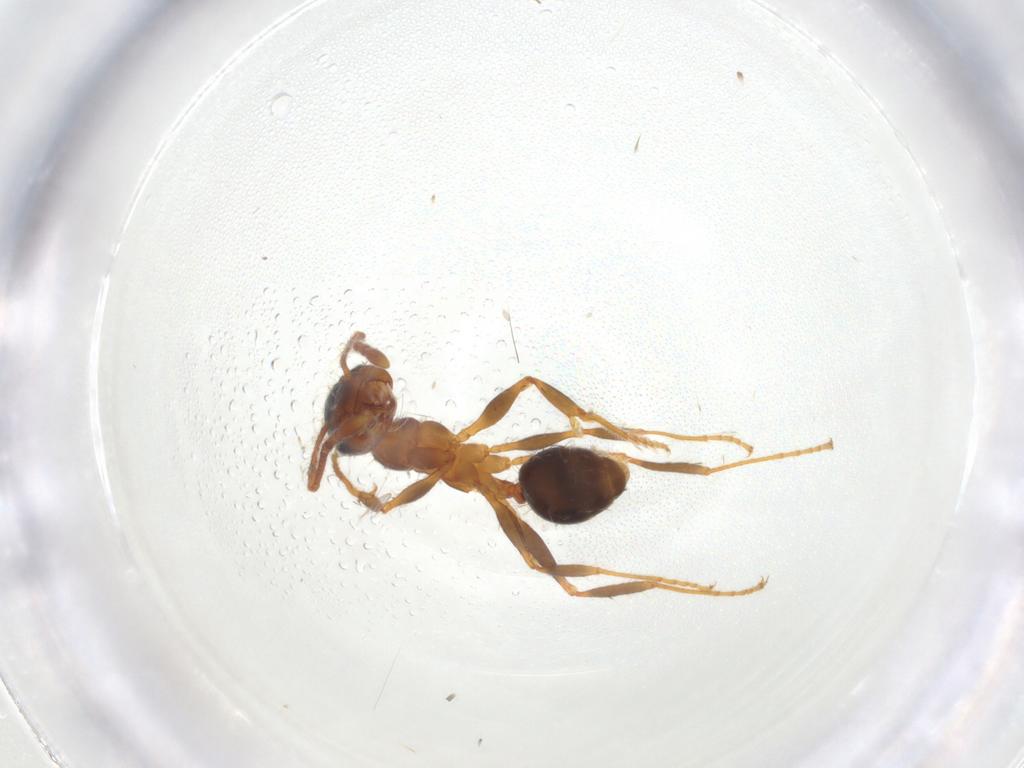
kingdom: Animalia
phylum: Arthropoda
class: Insecta
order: Hymenoptera
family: Formicidae
